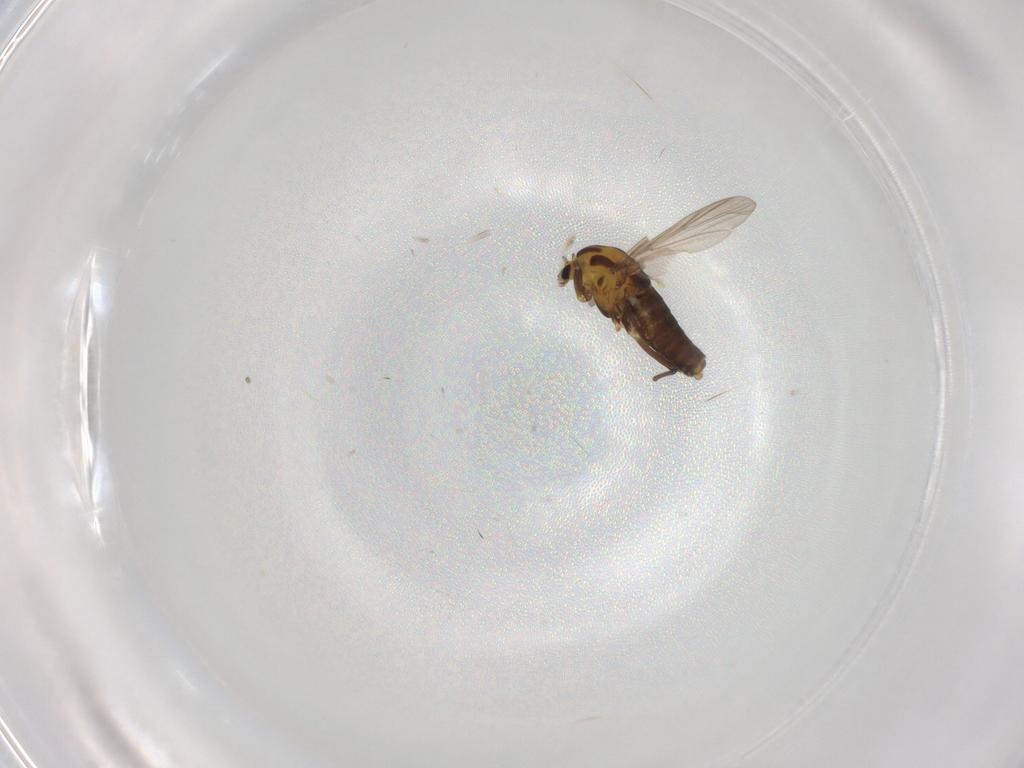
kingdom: Animalia
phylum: Arthropoda
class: Insecta
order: Diptera
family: Chironomidae
